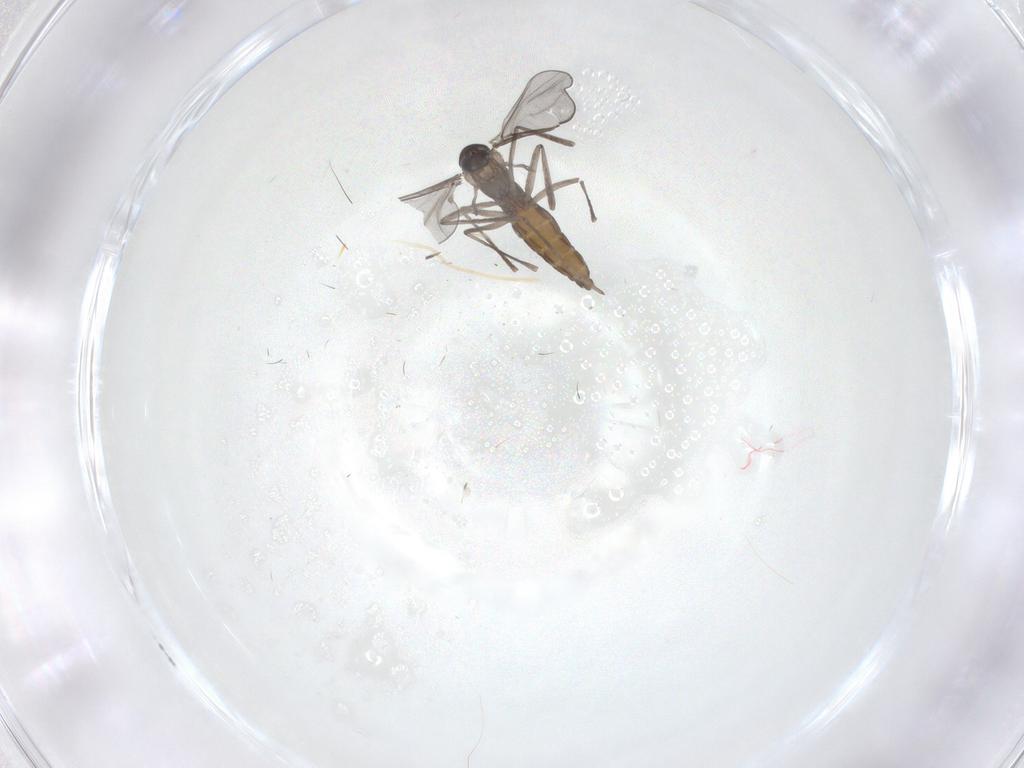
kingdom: Animalia
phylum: Arthropoda
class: Insecta
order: Diptera
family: Cecidomyiidae
